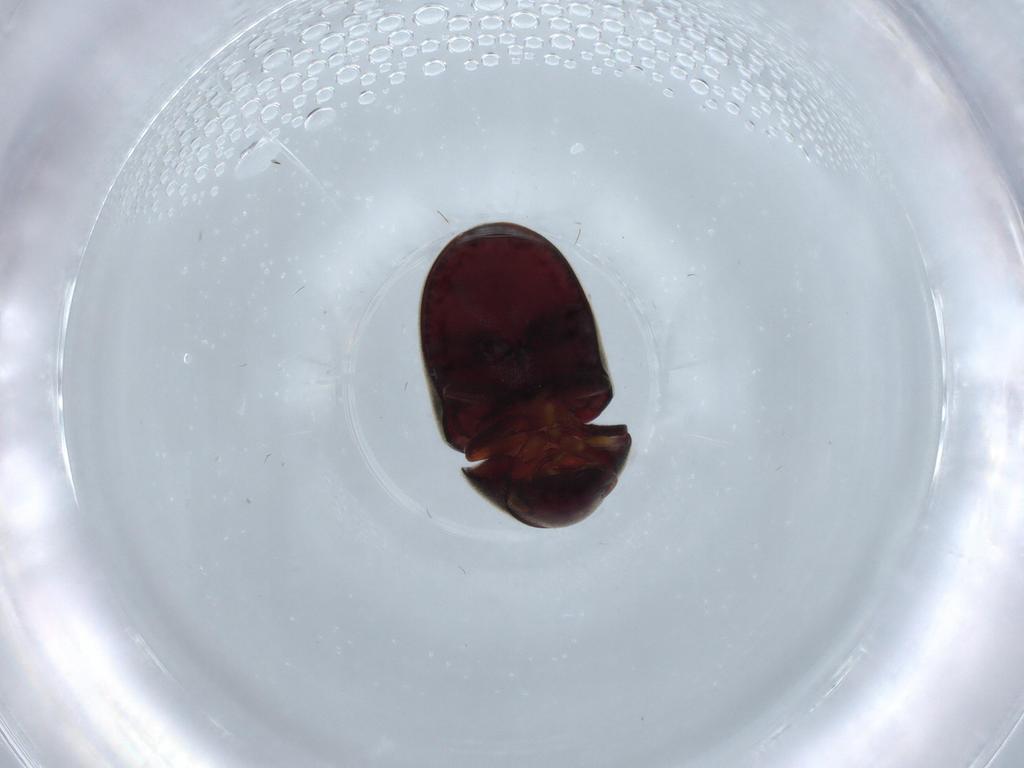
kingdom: Animalia
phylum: Arthropoda
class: Insecta
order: Coleoptera
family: Ptinidae
